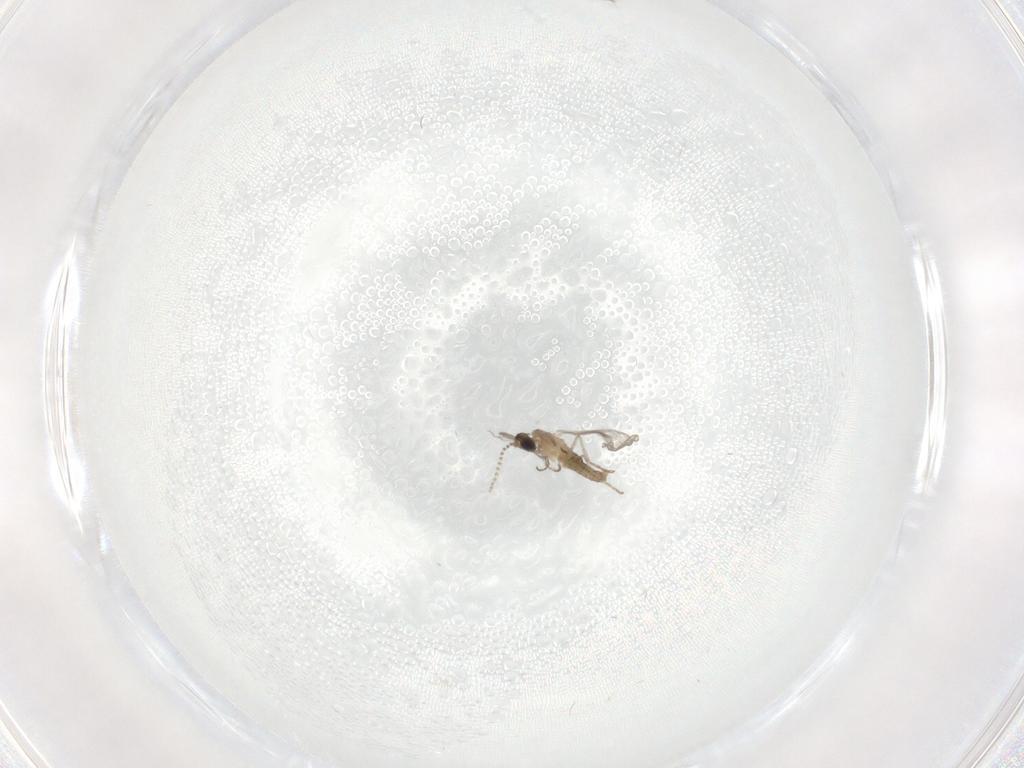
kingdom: Animalia
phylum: Arthropoda
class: Insecta
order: Diptera
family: Cecidomyiidae
